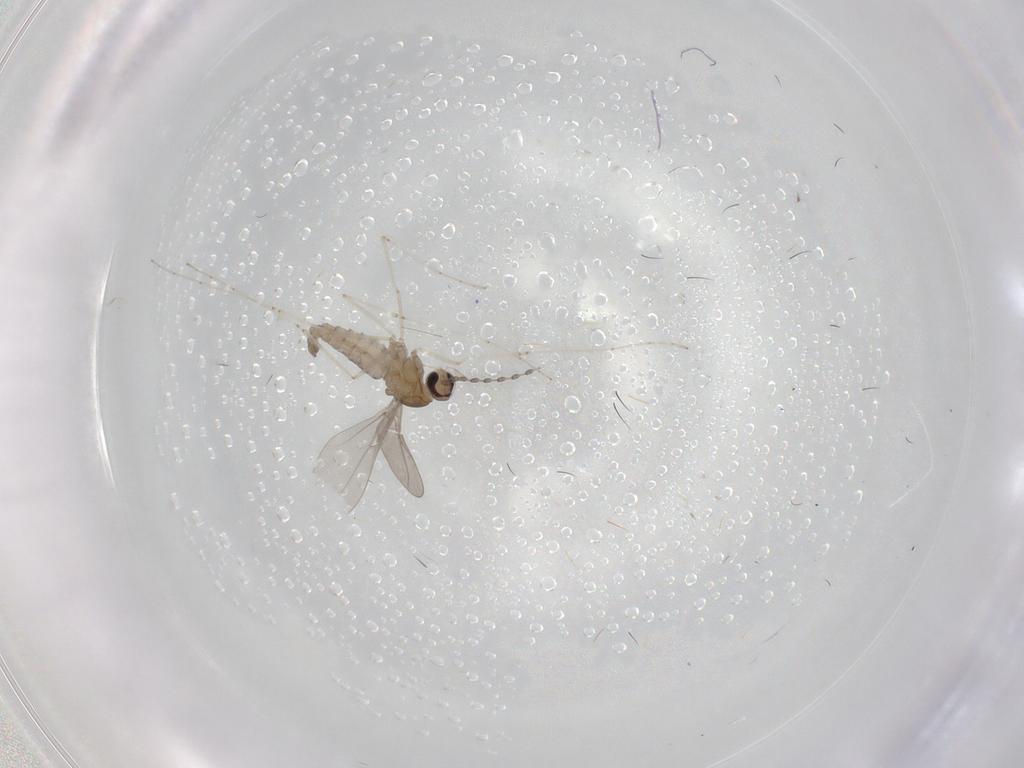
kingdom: Animalia
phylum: Arthropoda
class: Insecta
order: Diptera
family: Cecidomyiidae
